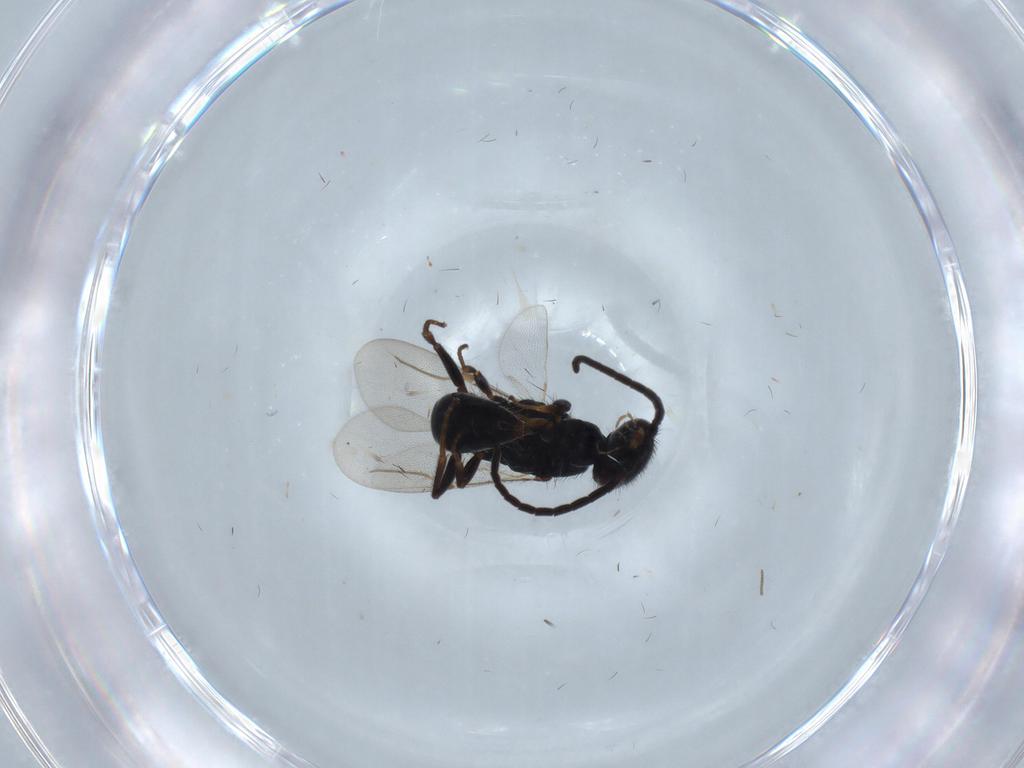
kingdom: Animalia
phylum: Arthropoda
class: Insecta
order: Hymenoptera
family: Bethylidae
